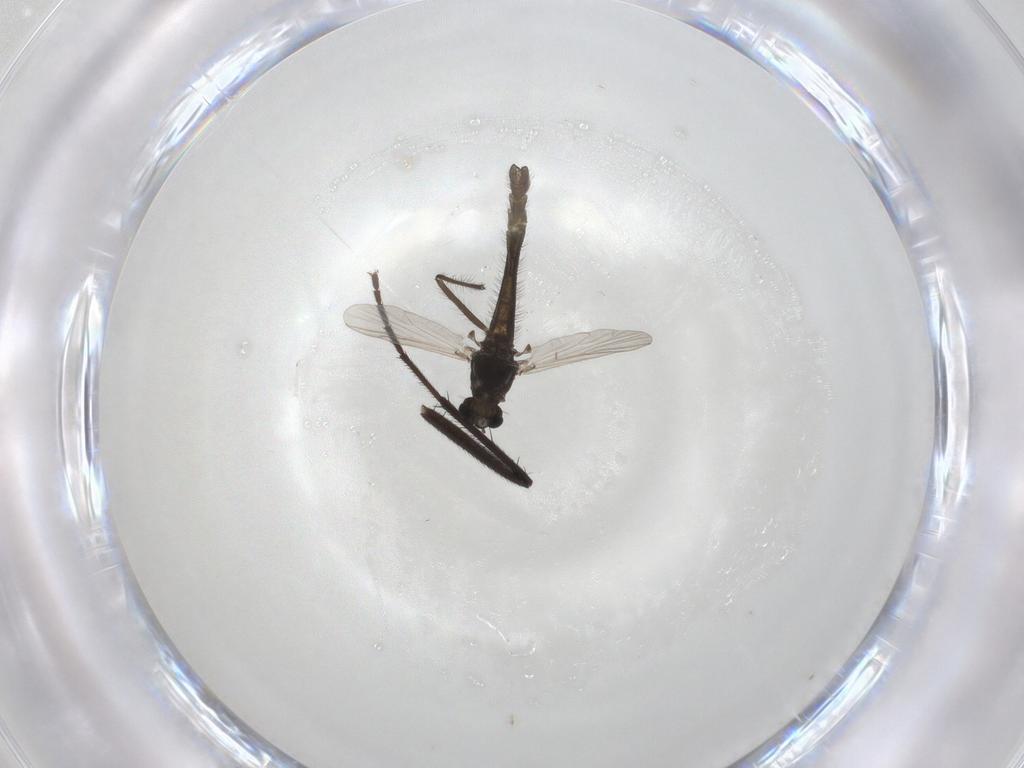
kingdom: Animalia
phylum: Arthropoda
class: Insecta
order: Diptera
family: Chironomidae
